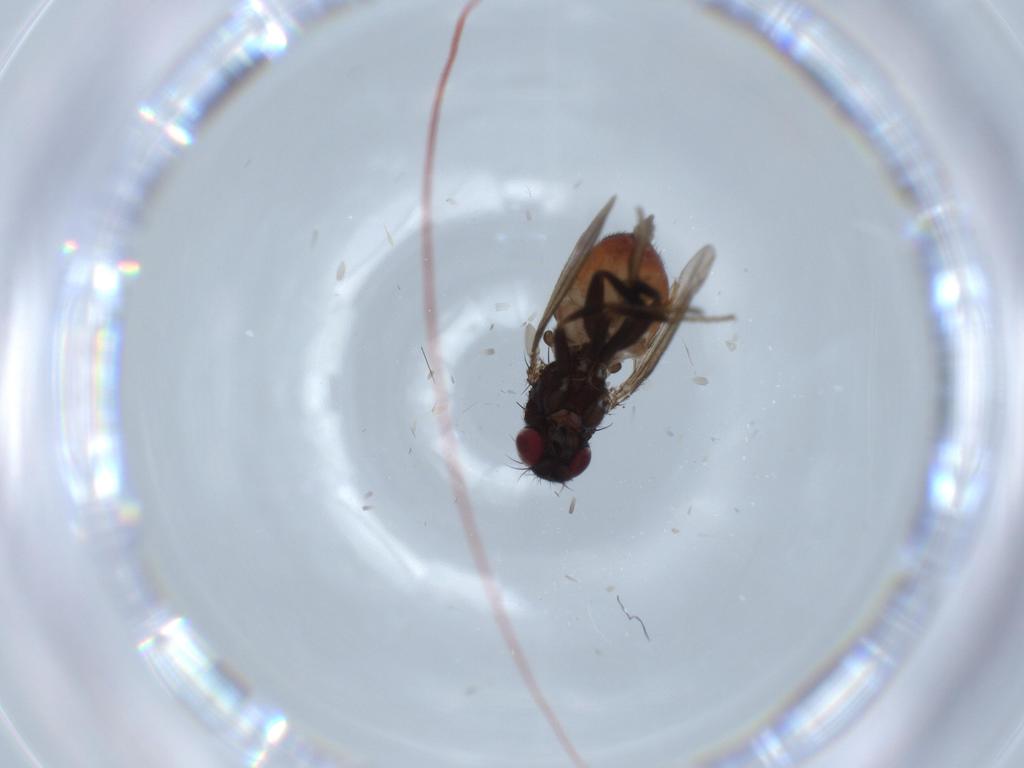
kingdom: Animalia
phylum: Arthropoda
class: Insecta
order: Diptera
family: Milichiidae
